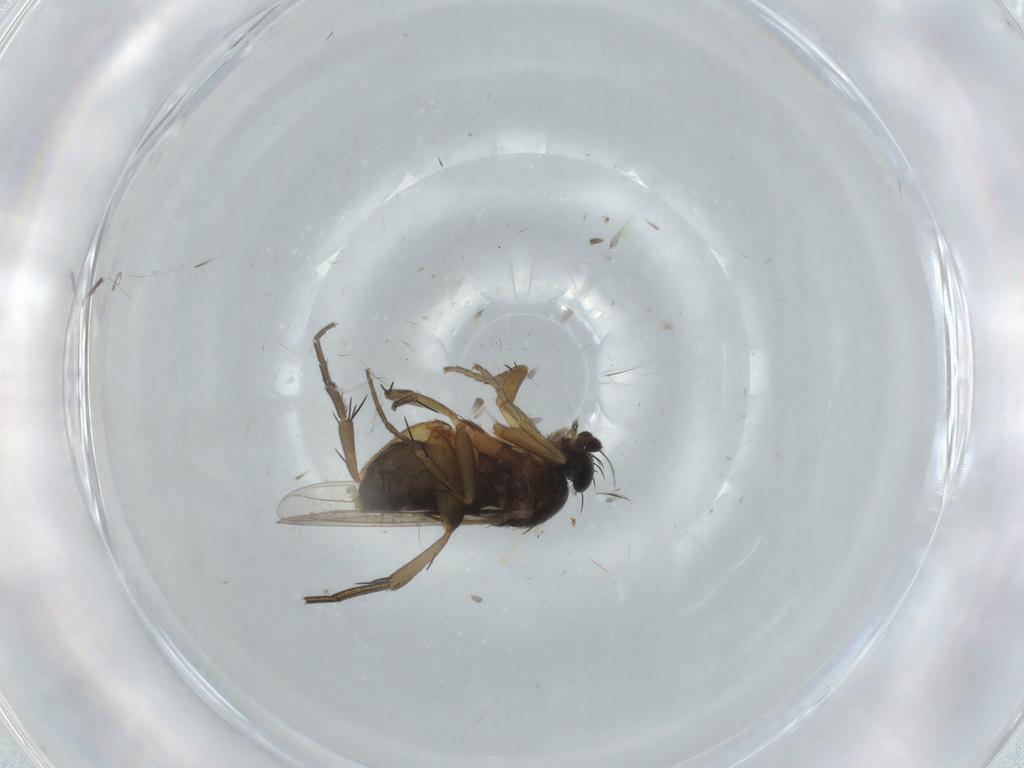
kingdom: Animalia
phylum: Arthropoda
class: Insecta
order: Diptera
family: Phoridae
